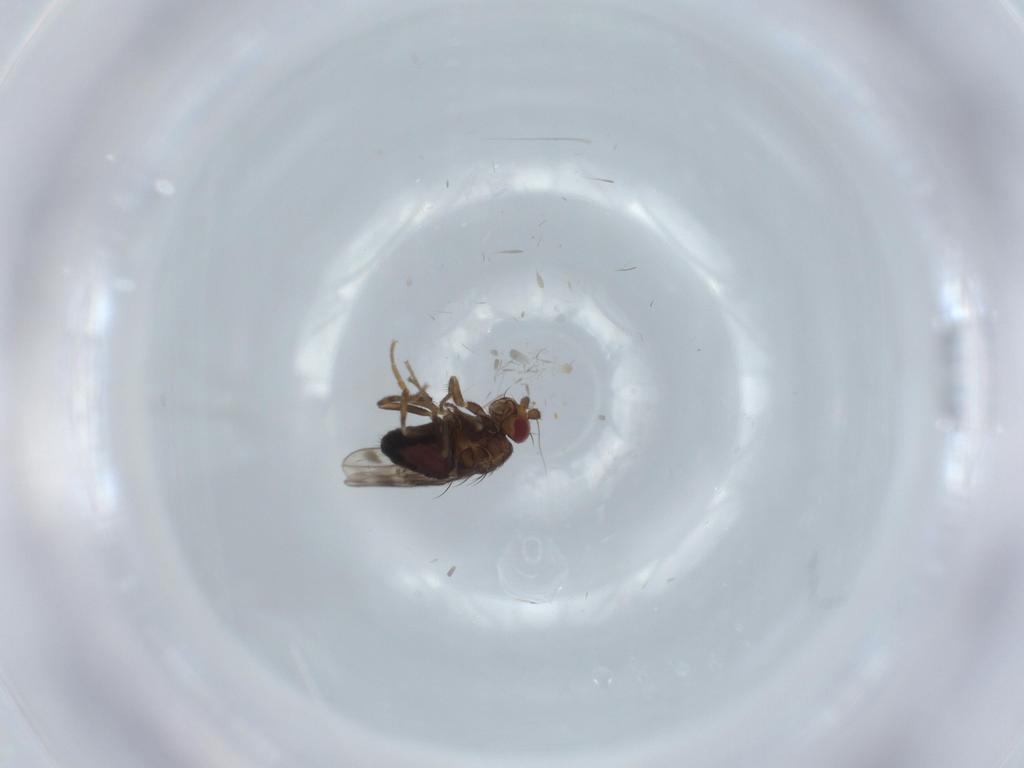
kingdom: Animalia
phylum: Arthropoda
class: Insecta
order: Diptera
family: Sphaeroceridae
